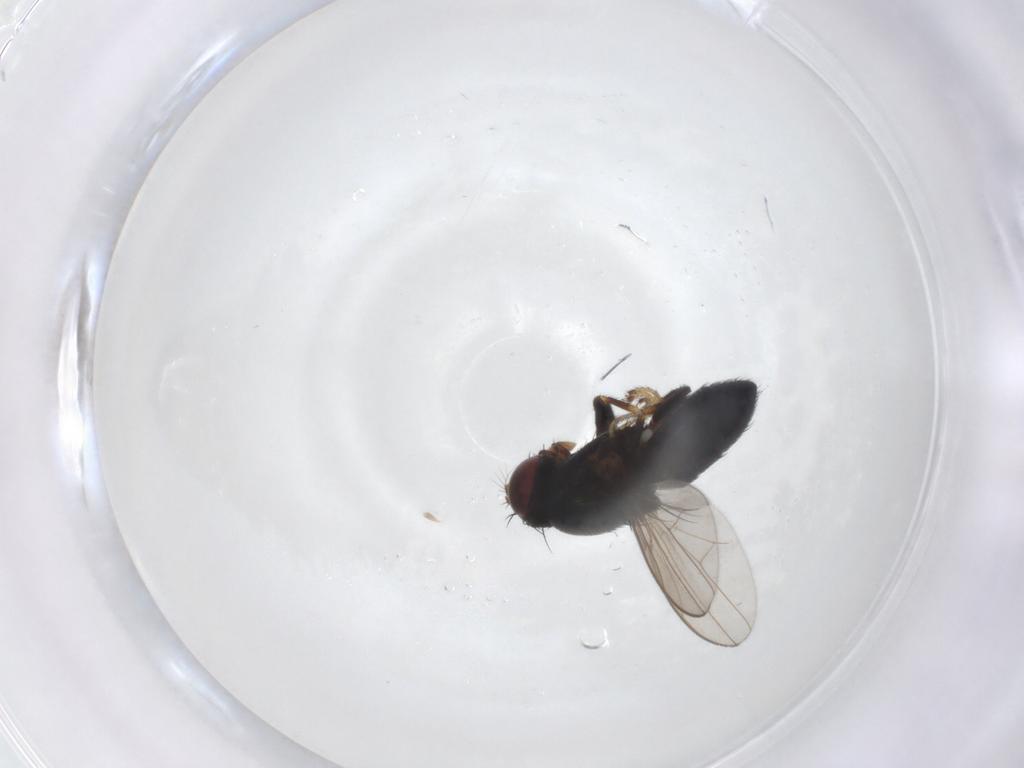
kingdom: Animalia
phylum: Arthropoda
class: Insecta
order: Diptera
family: Ephydridae
